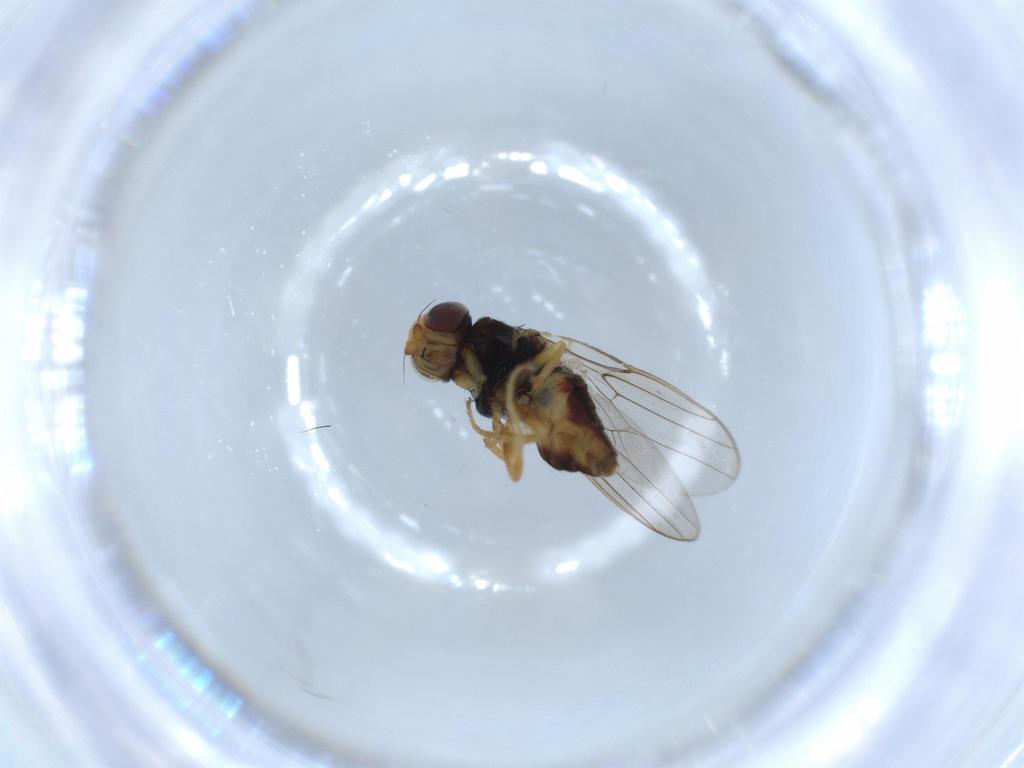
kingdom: Animalia
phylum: Arthropoda
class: Insecta
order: Diptera
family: Chloropidae
